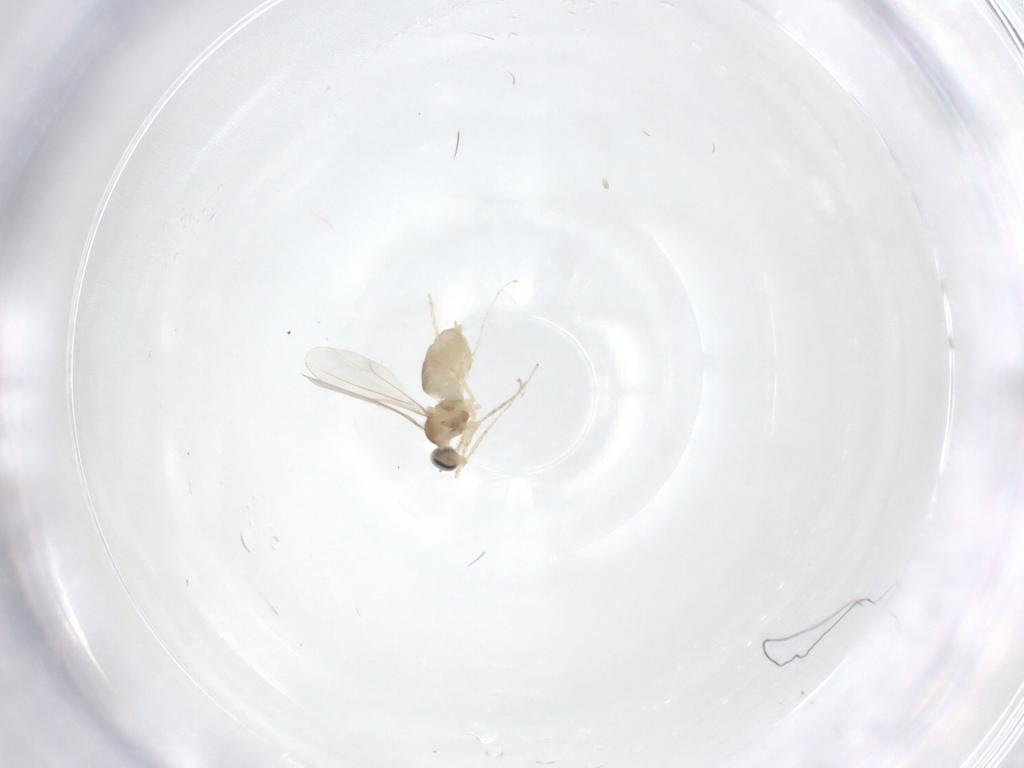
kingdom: Animalia
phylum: Arthropoda
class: Insecta
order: Diptera
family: Cecidomyiidae
